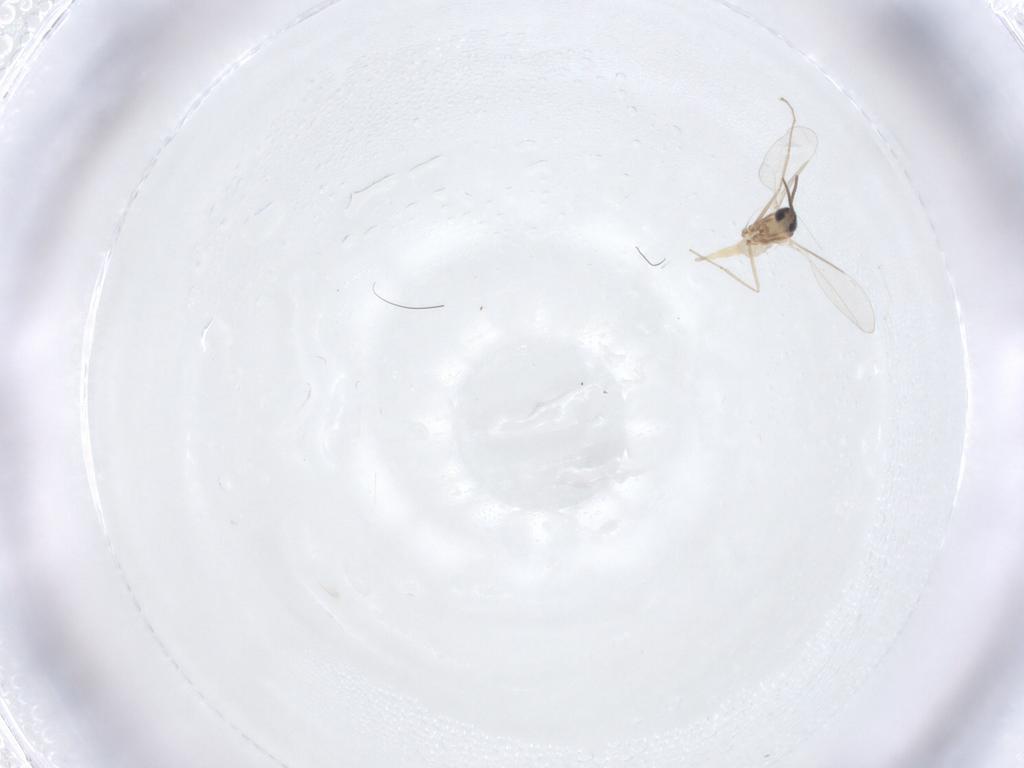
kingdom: Animalia
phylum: Arthropoda
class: Insecta
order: Diptera
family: Cecidomyiidae
